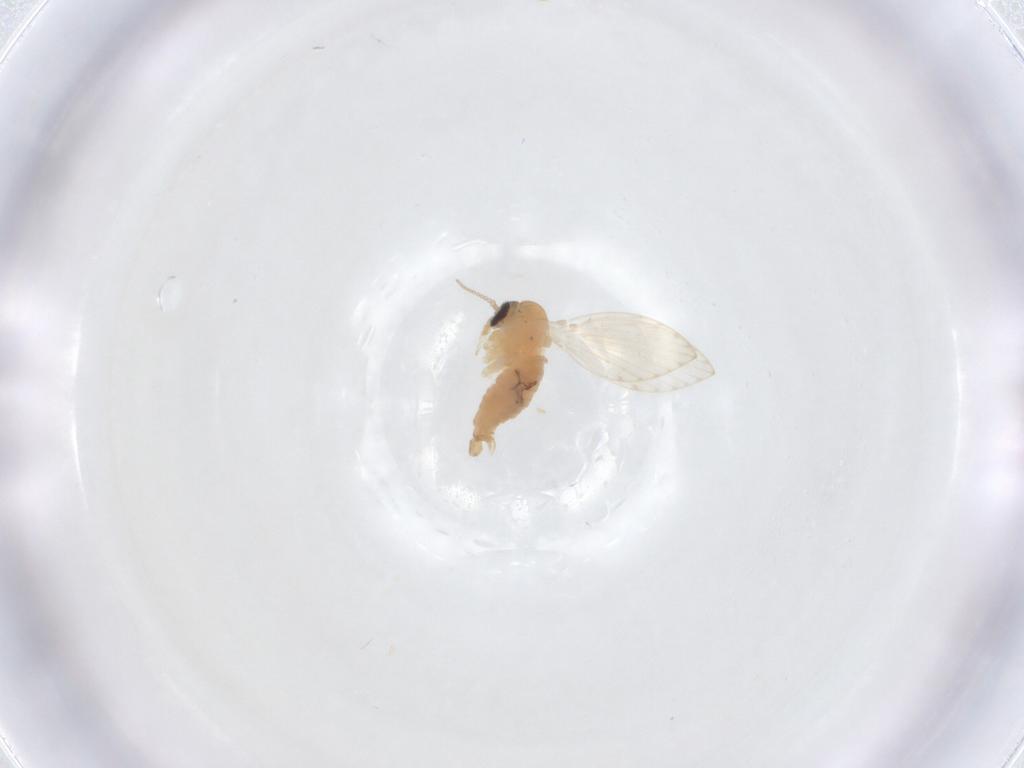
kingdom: Animalia
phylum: Arthropoda
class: Insecta
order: Diptera
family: Psychodidae
